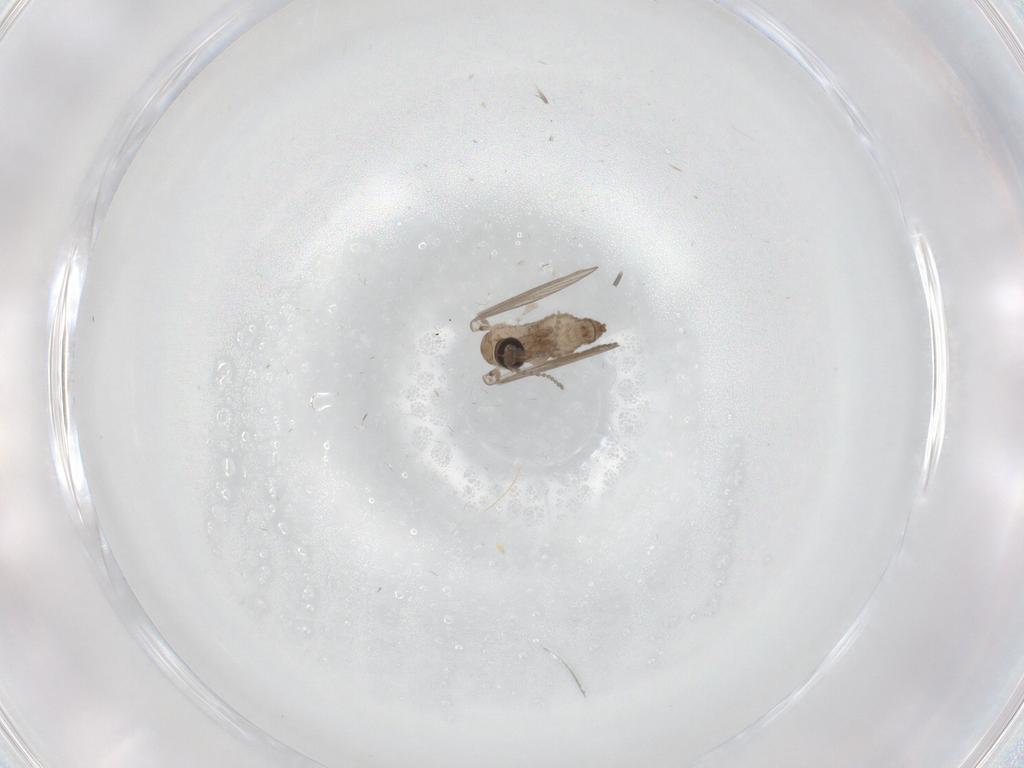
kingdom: Animalia
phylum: Arthropoda
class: Insecta
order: Diptera
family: Psychodidae
